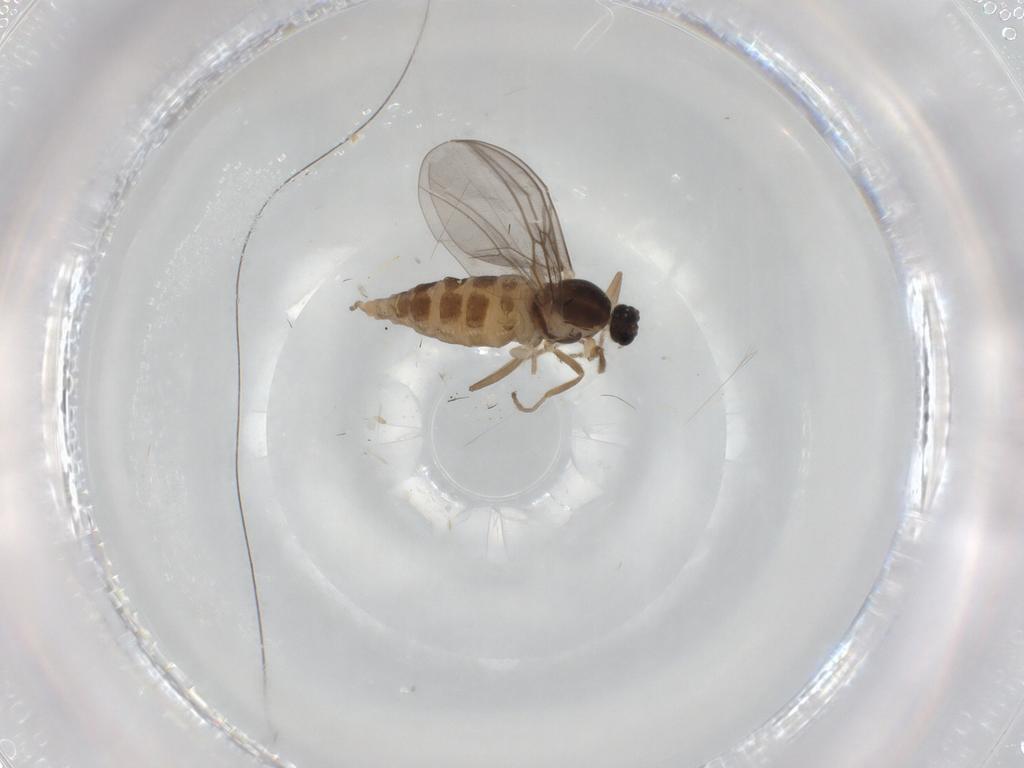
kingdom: Animalia
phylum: Arthropoda
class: Insecta
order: Diptera
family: Cecidomyiidae
